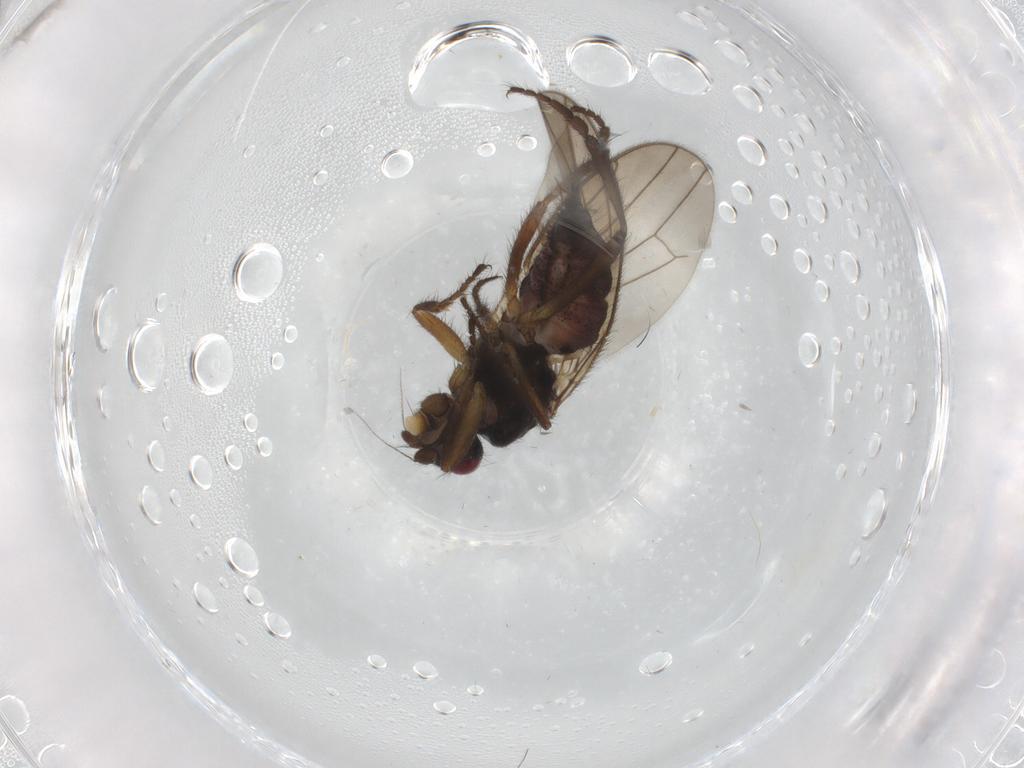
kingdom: Animalia
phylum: Arthropoda
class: Insecta
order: Diptera
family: Sphaeroceridae
